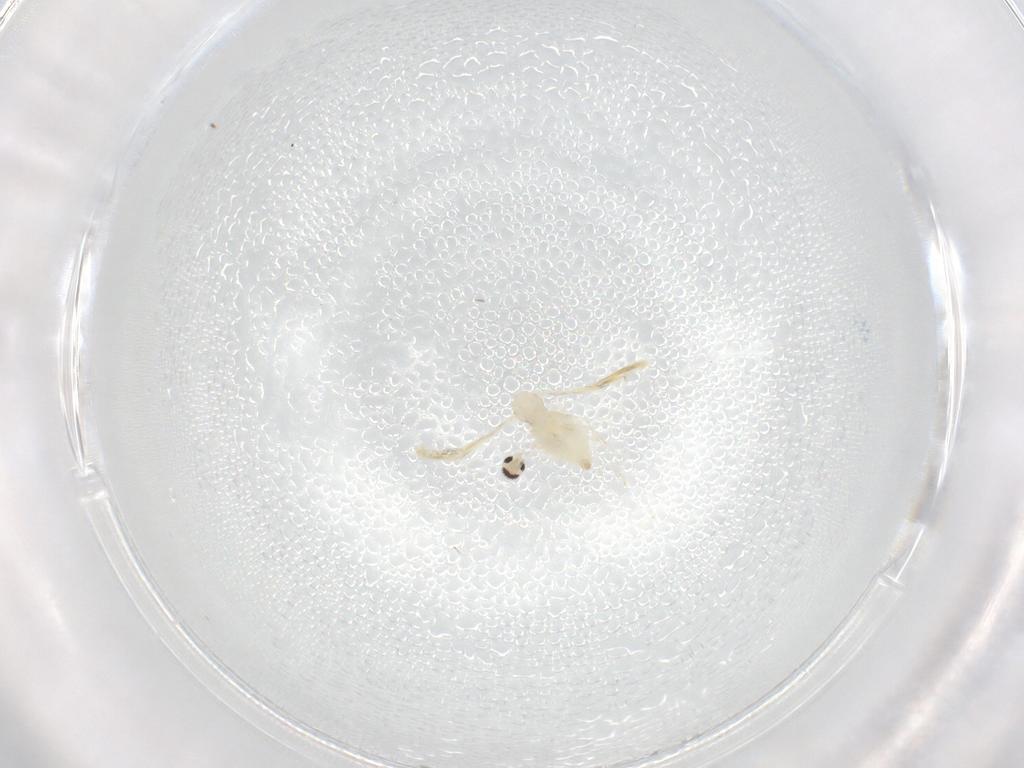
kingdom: Animalia
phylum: Arthropoda
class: Insecta
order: Diptera
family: Cecidomyiidae
